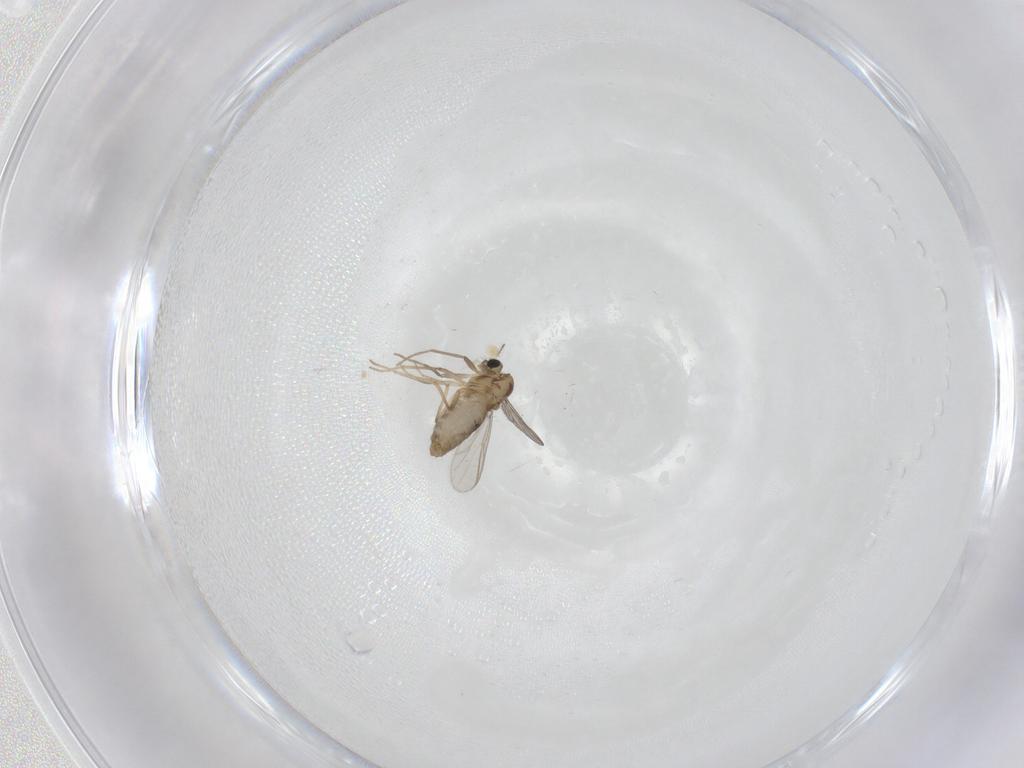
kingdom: Animalia
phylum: Arthropoda
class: Insecta
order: Diptera
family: Chironomidae
